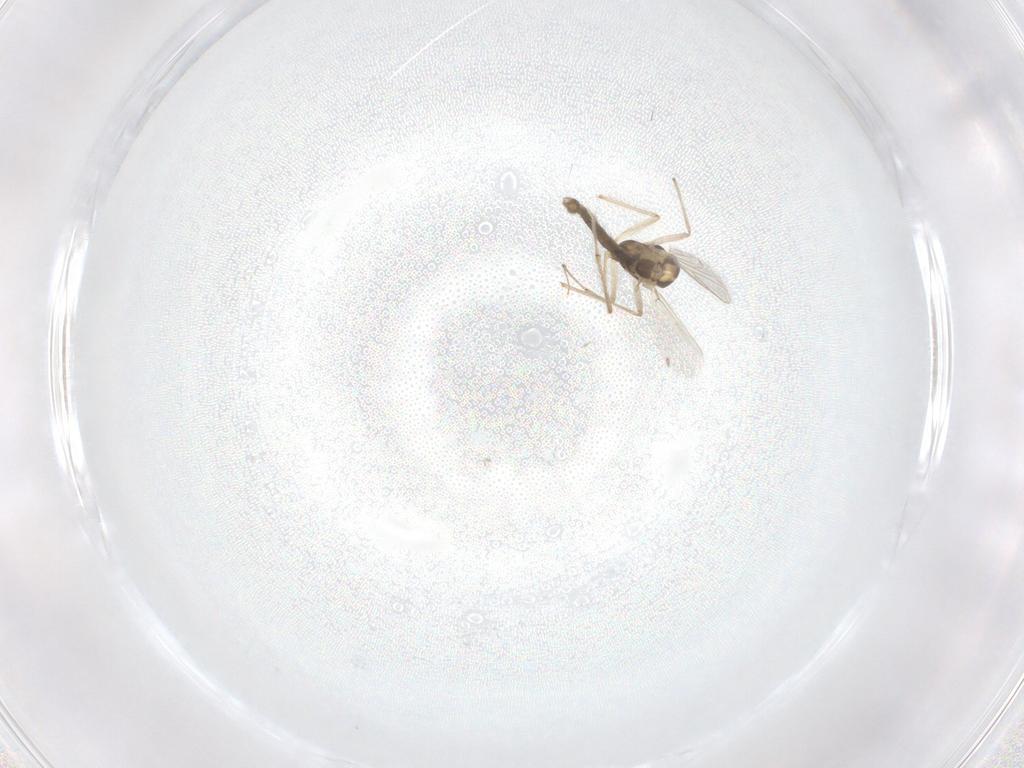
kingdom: Animalia
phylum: Arthropoda
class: Insecta
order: Diptera
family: Chironomidae
